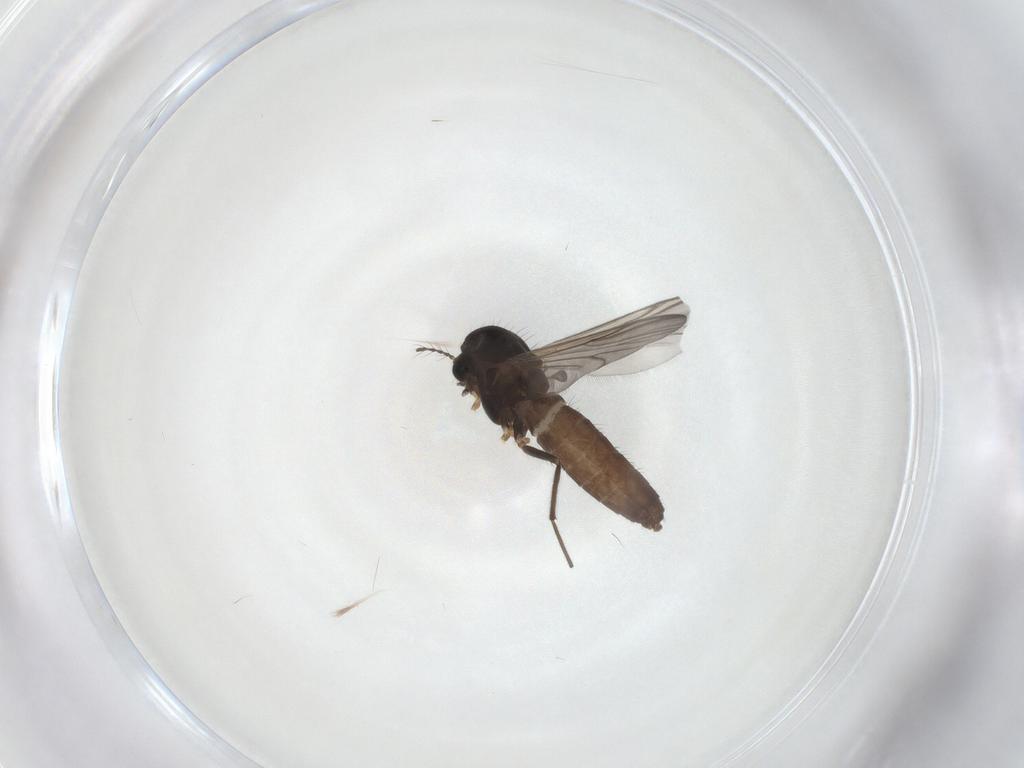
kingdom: Animalia
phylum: Arthropoda
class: Insecta
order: Diptera
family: Chironomidae
